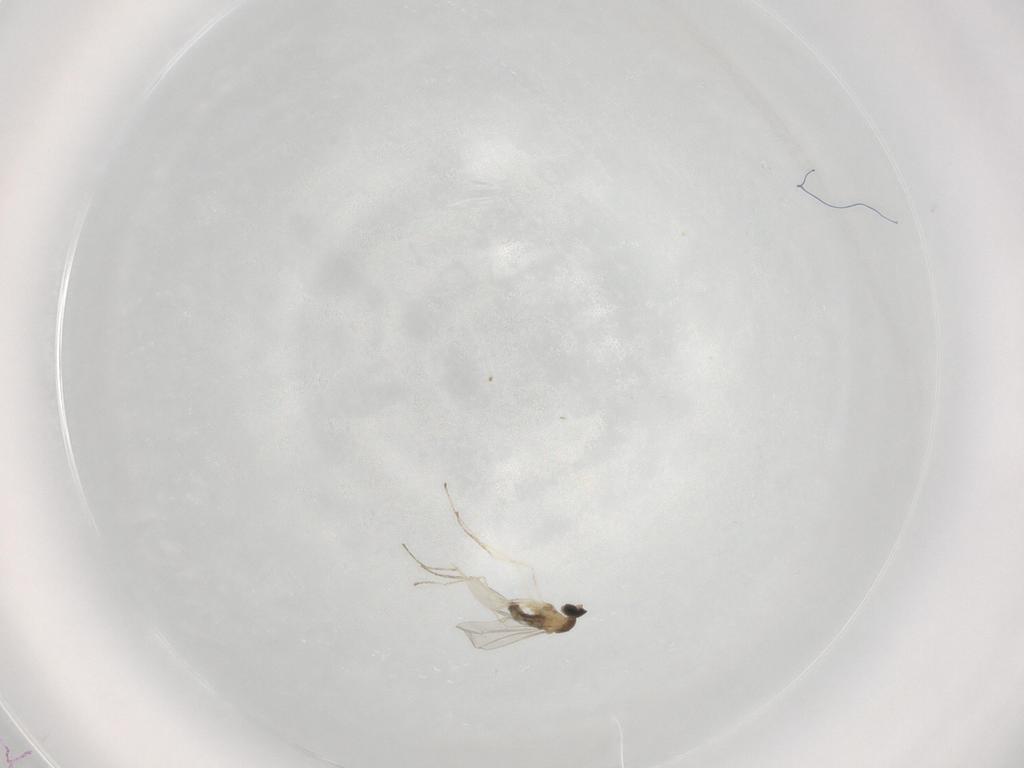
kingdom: Animalia
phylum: Arthropoda
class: Insecta
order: Diptera
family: Cecidomyiidae
